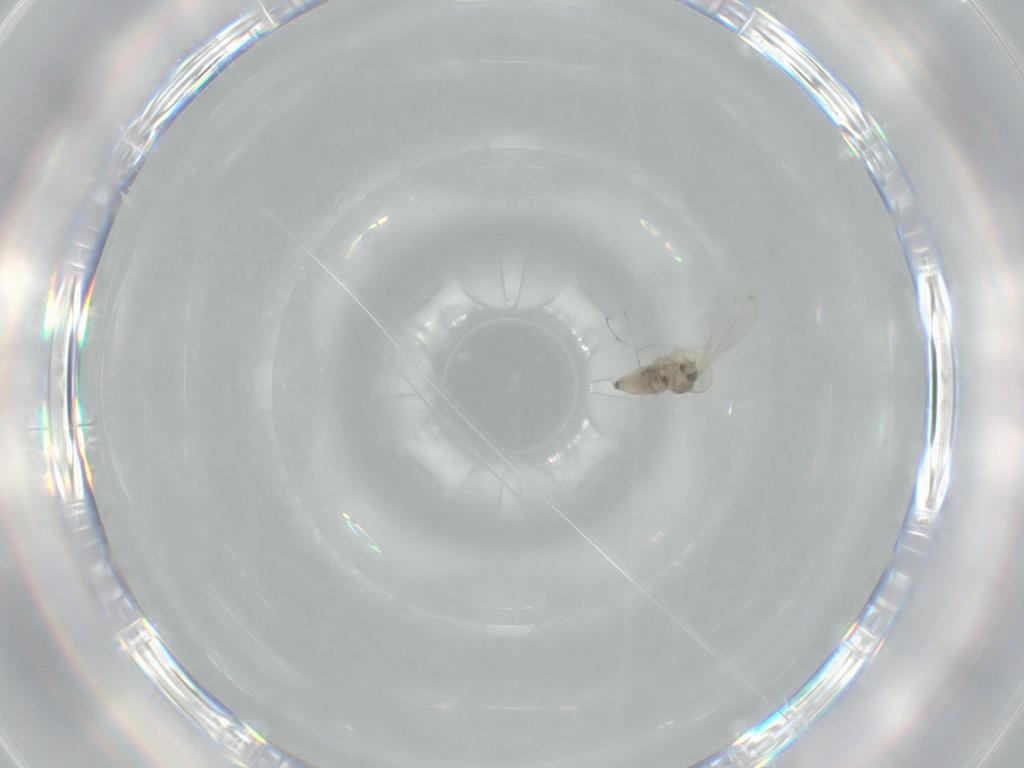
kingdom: Animalia
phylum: Arthropoda
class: Insecta
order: Diptera
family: Cecidomyiidae
